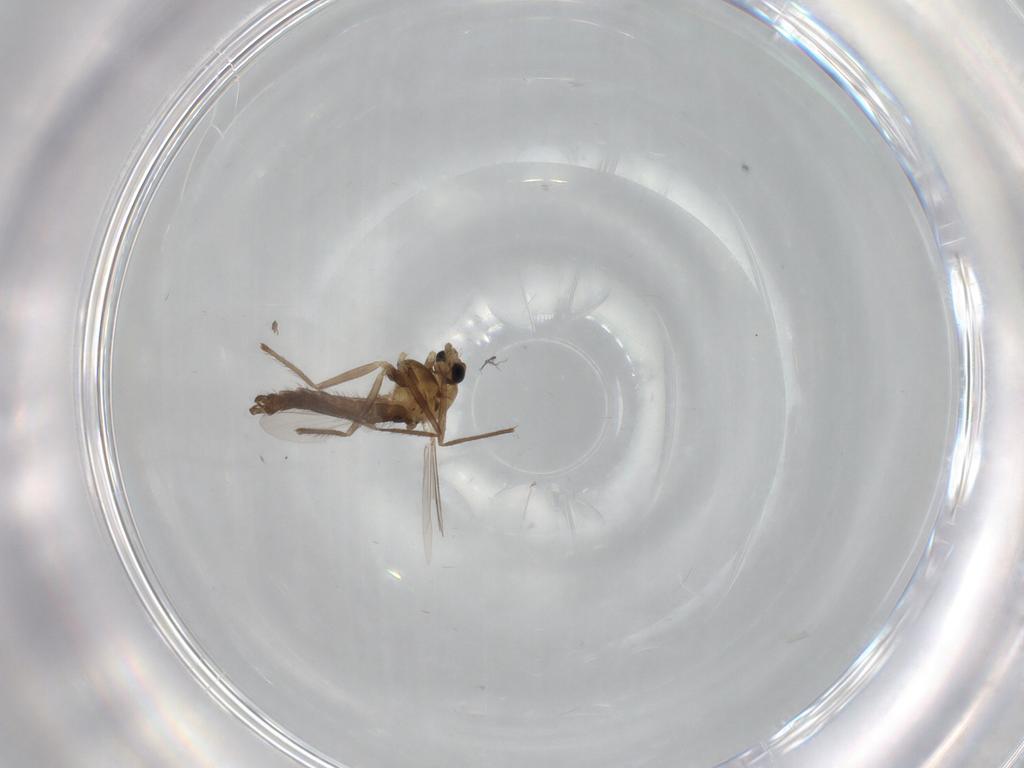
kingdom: Animalia
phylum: Arthropoda
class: Insecta
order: Diptera
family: Chironomidae
